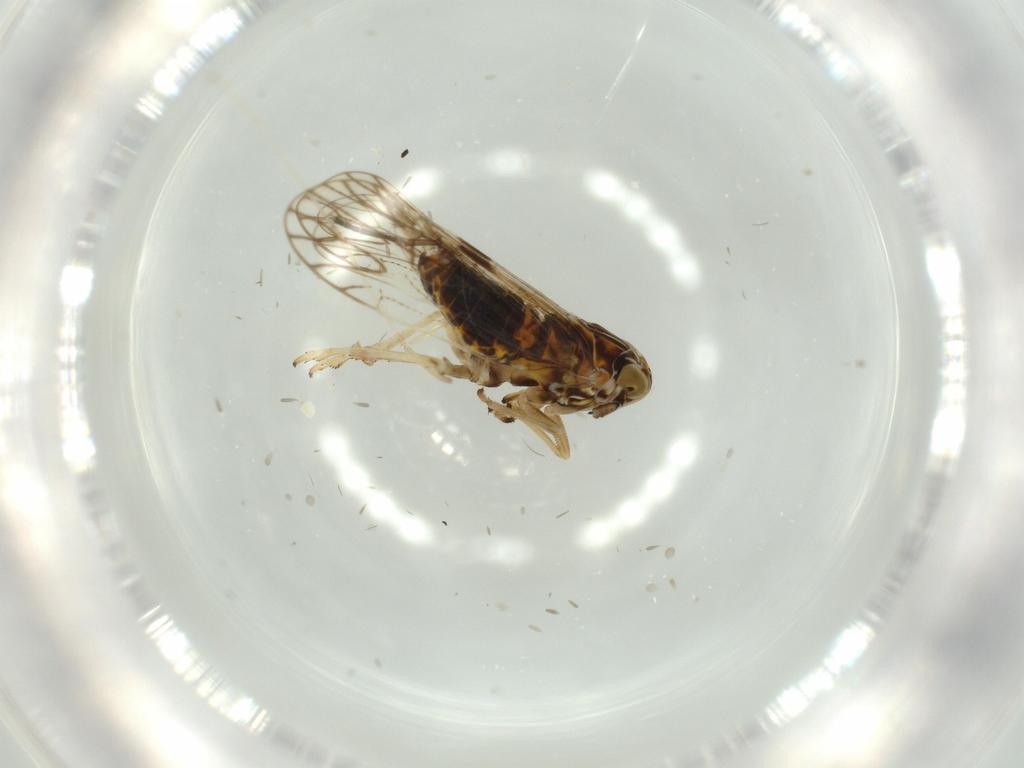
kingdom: Animalia
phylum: Arthropoda
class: Insecta
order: Hemiptera
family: Delphacidae
